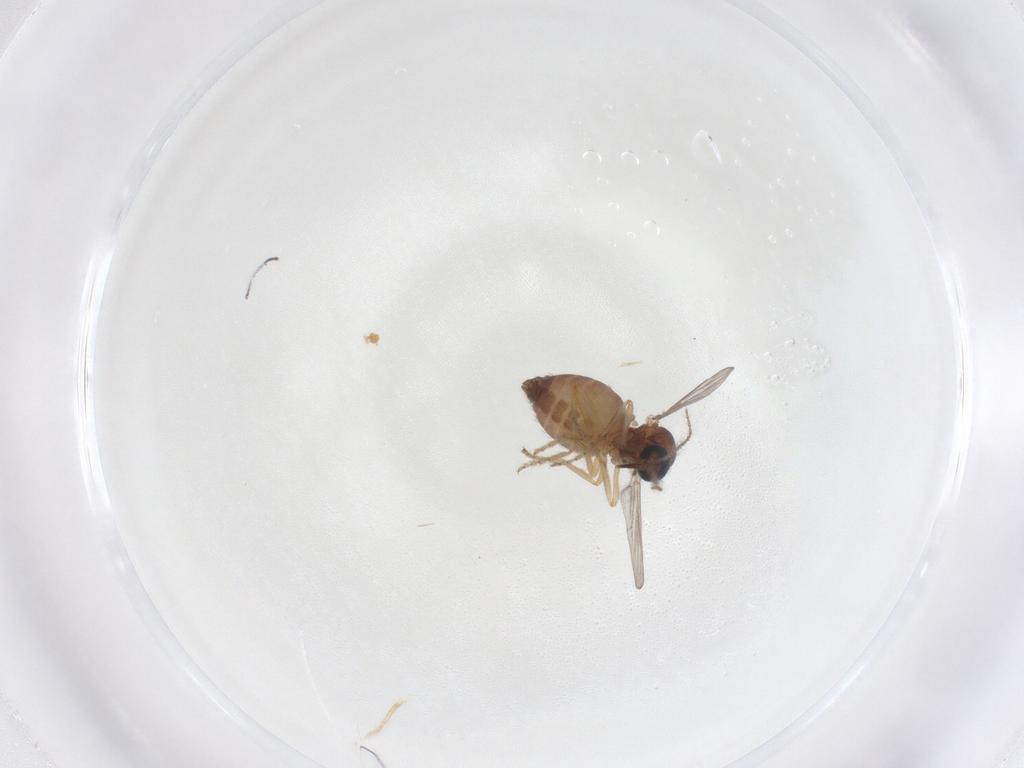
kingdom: Animalia
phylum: Arthropoda
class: Insecta
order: Diptera
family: Ceratopogonidae
